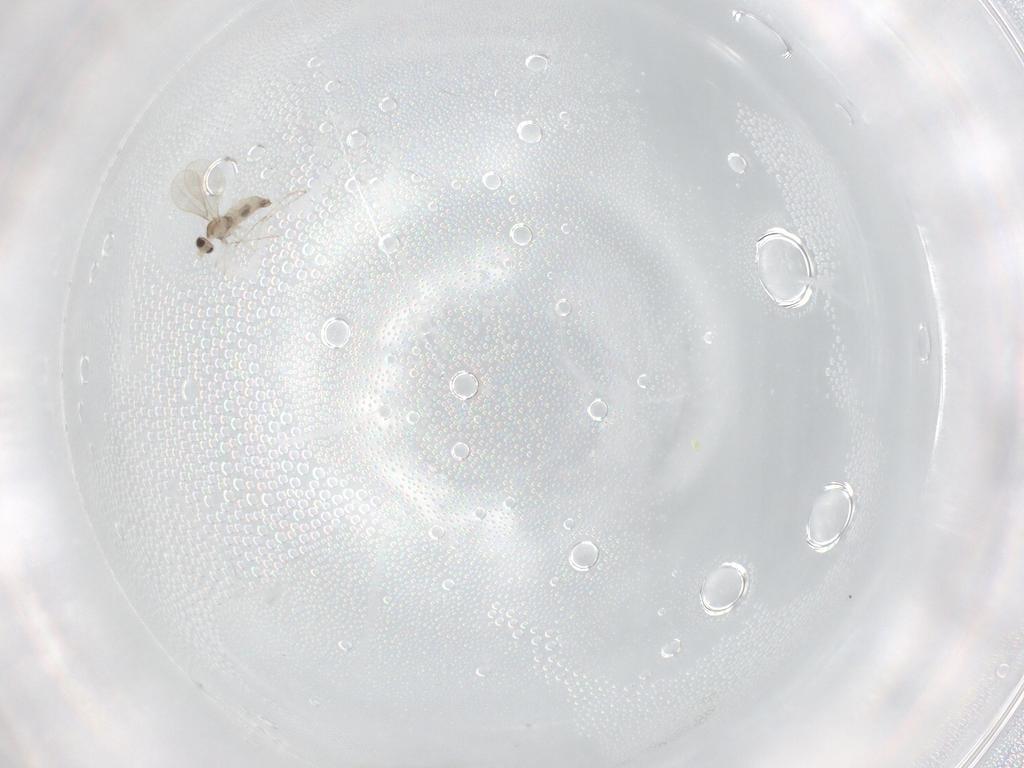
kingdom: Animalia
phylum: Arthropoda
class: Insecta
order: Diptera
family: Cecidomyiidae
